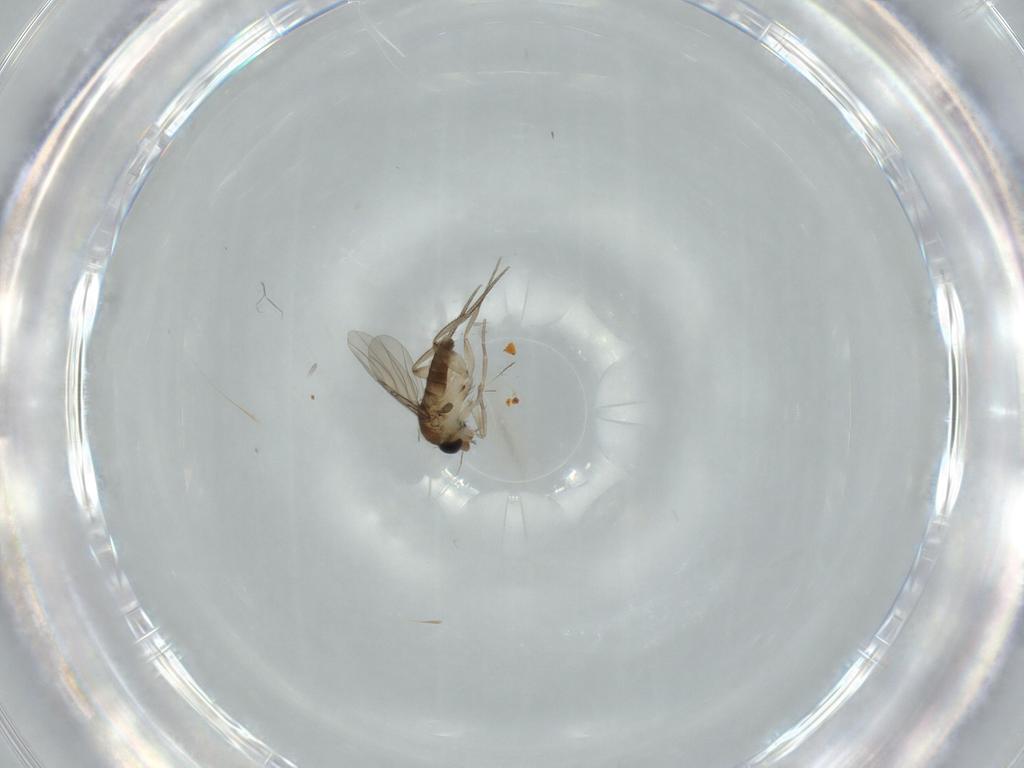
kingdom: Animalia
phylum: Arthropoda
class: Insecta
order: Diptera
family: Phoridae
